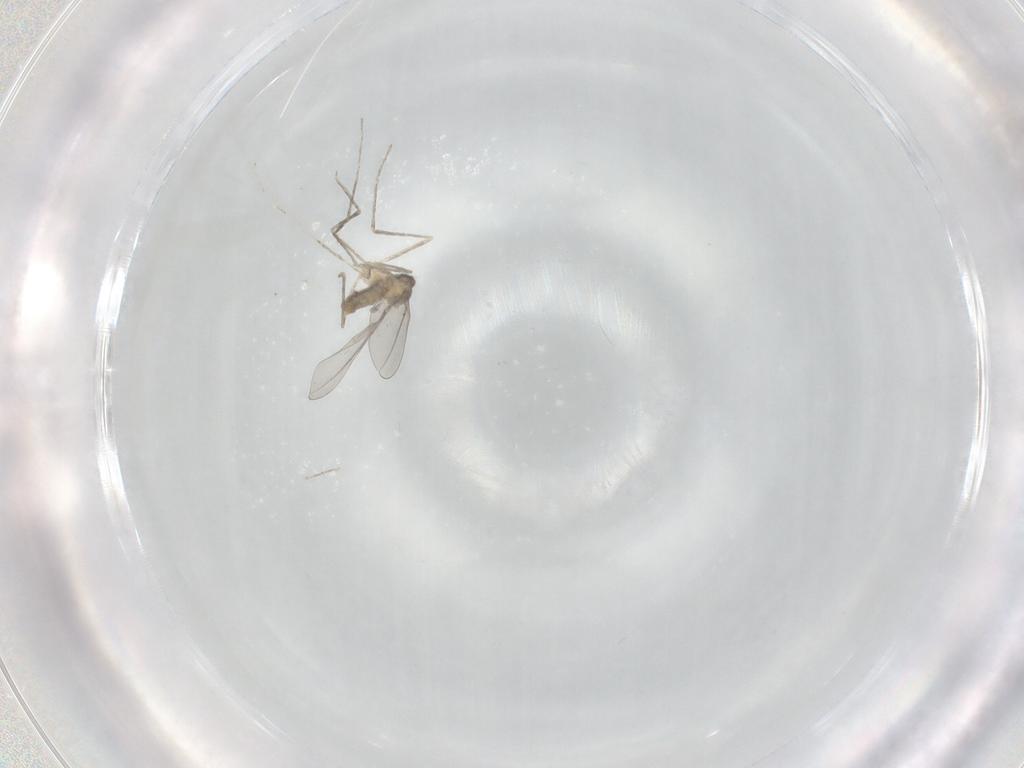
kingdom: Animalia
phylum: Arthropoda
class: Insecta
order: Diptera
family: Cecidomyiidae
